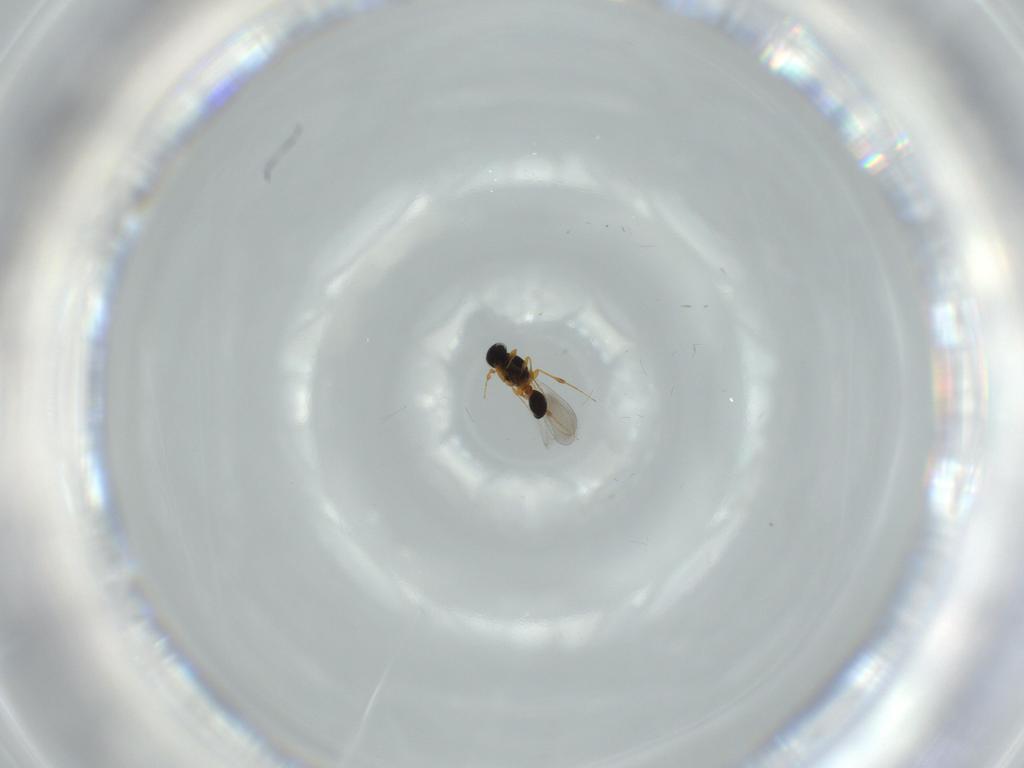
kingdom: Animalia
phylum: Arthropoda
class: Insecta
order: Hymenoptera
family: Platygastridae
